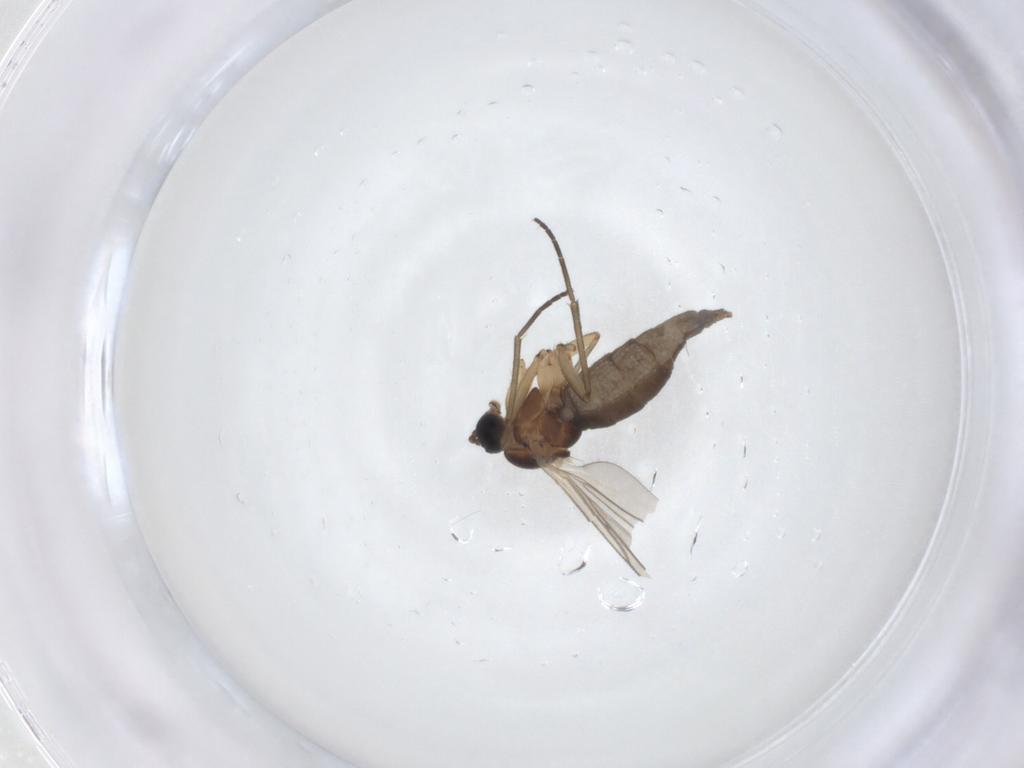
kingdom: Animalia
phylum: Arthropoda
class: Insecta
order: Diptera
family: Sciaridae
